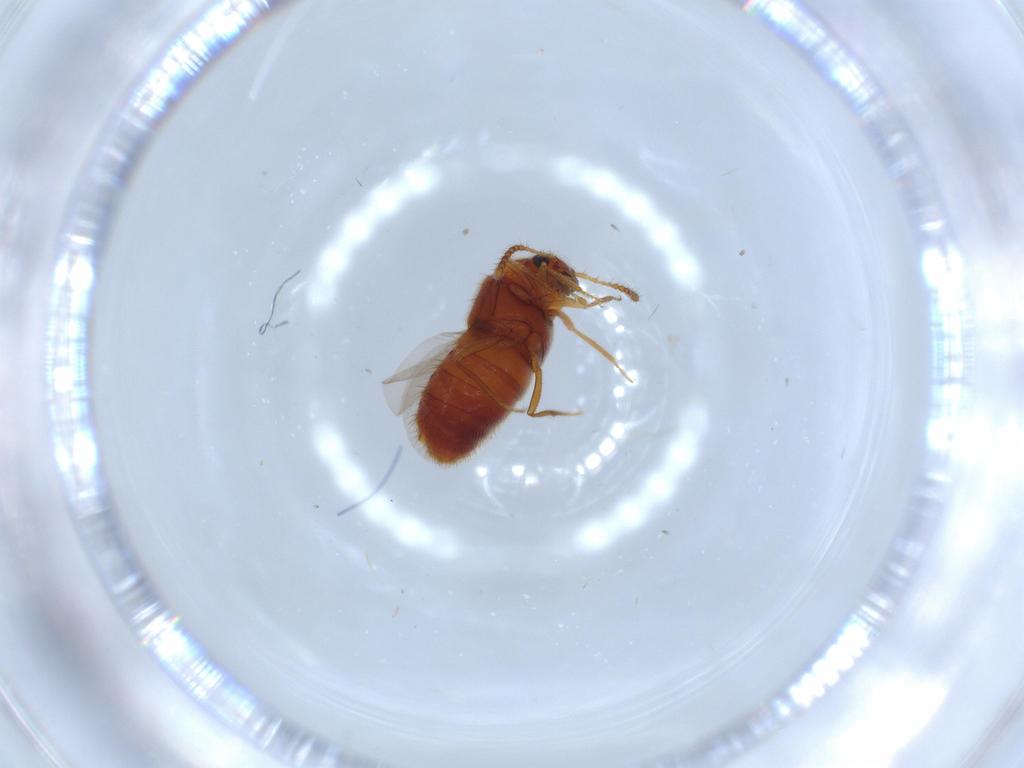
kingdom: Animalia
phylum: Arthropoda
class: Insecta
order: Coleoptera
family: Staphylinidae
